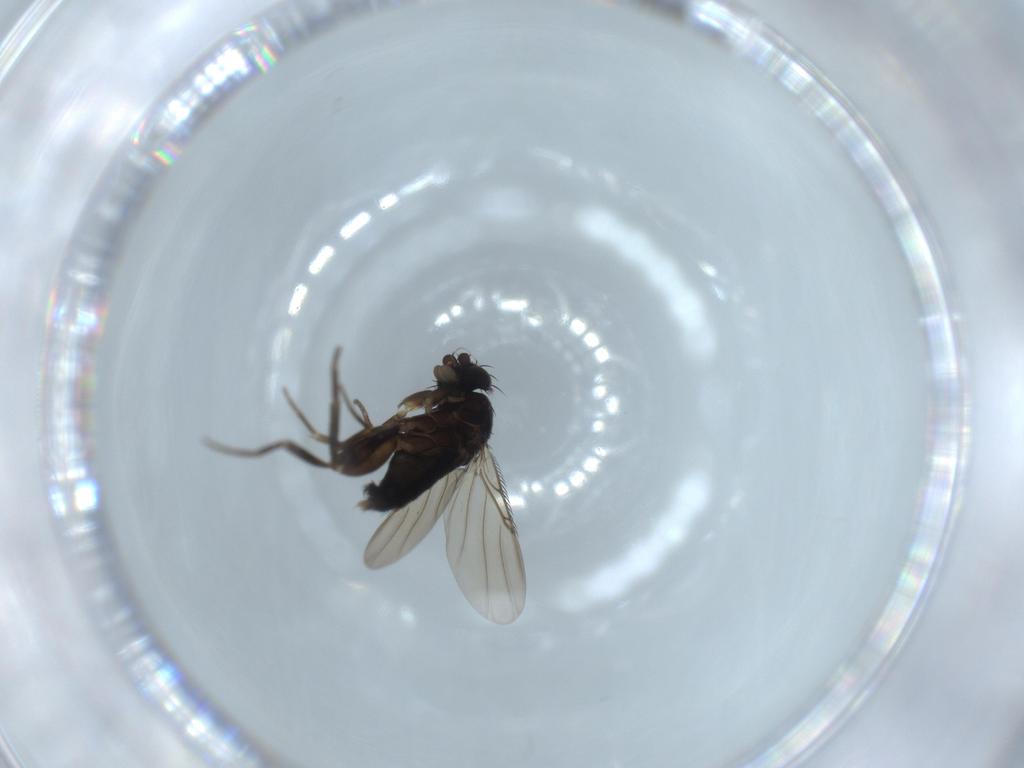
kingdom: Animalia
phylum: Arthropoda
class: Insecta
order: Diptera
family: Phoridae
